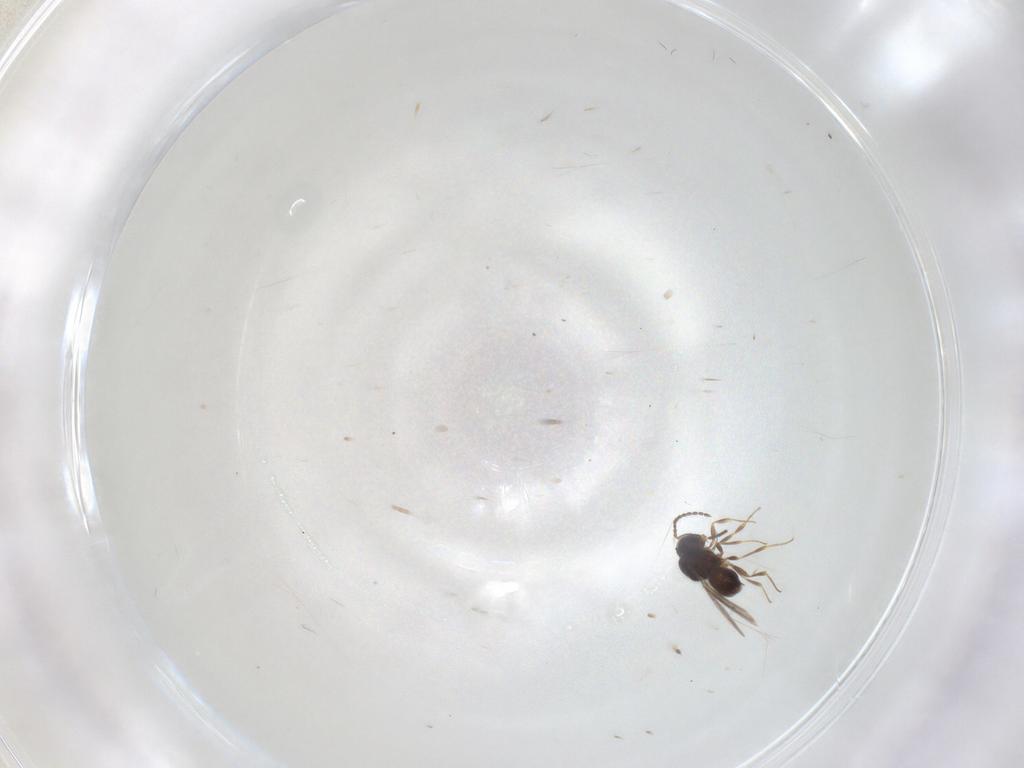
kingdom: Animalia
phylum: Arthropoda
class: Insecta
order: Hymenoptera
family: Scelionidae
